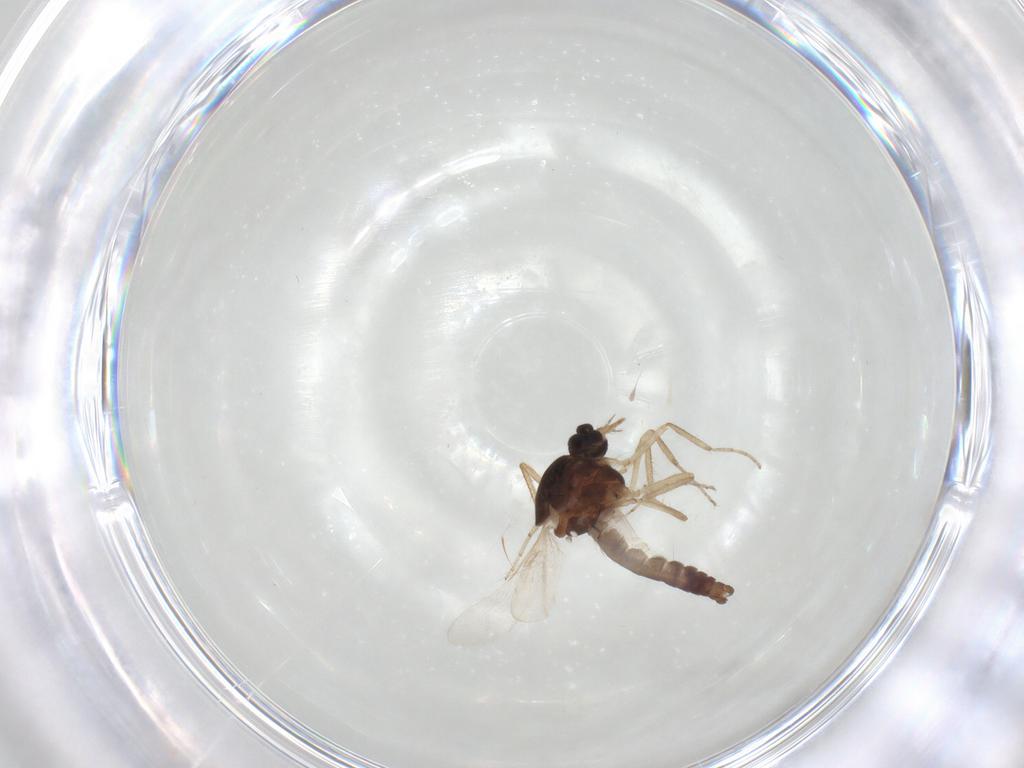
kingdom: Animalia
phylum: Arthropoda
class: Insecta
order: Diptera
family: Ceratopogonidae
